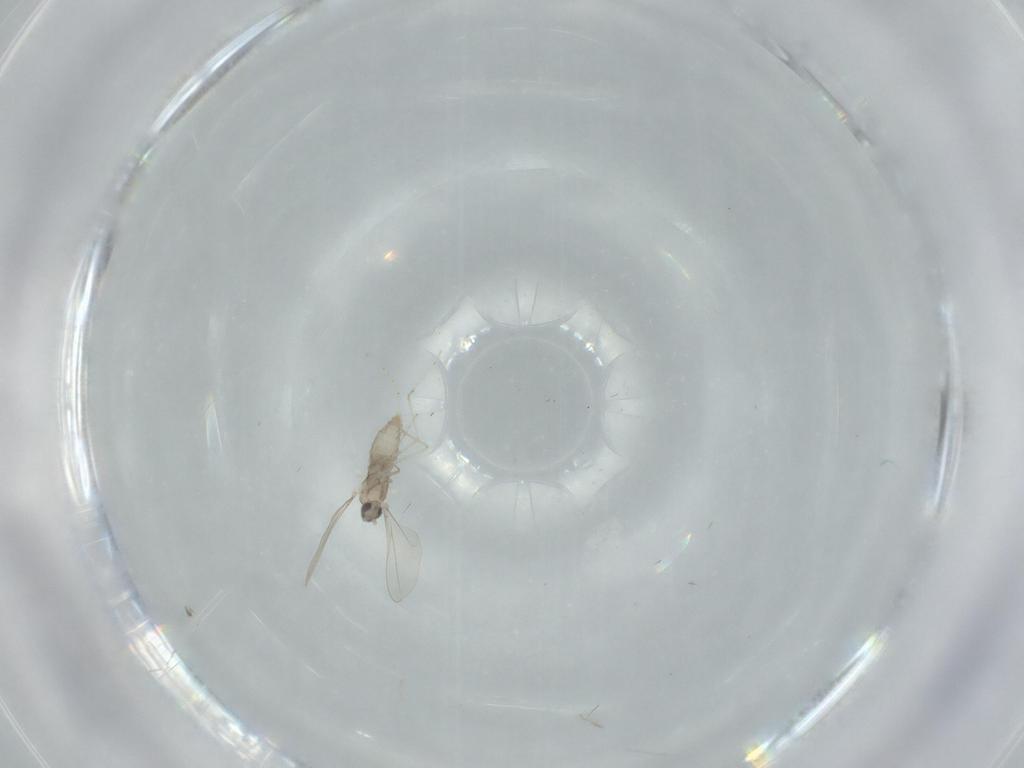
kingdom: Animalia
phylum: Arthropoda
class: Insecta
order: Diptera
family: Cecidomyiidae
